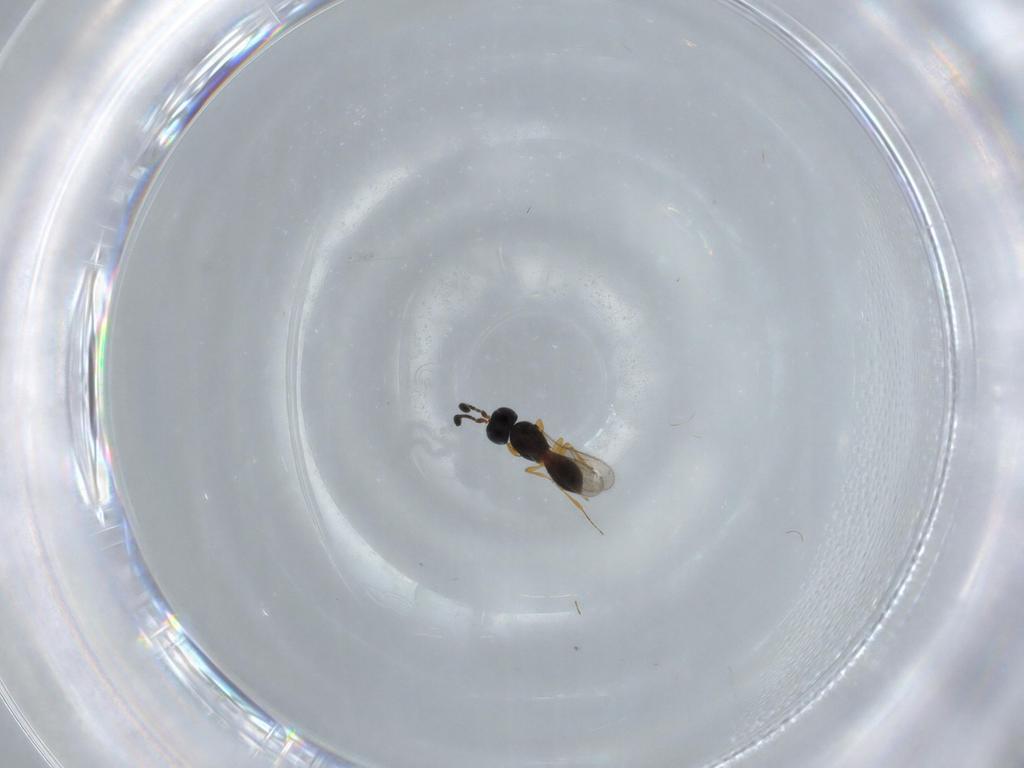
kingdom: Animalia
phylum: Arthropoda
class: Insecta
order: Hymenoptera
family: Scelionidae
